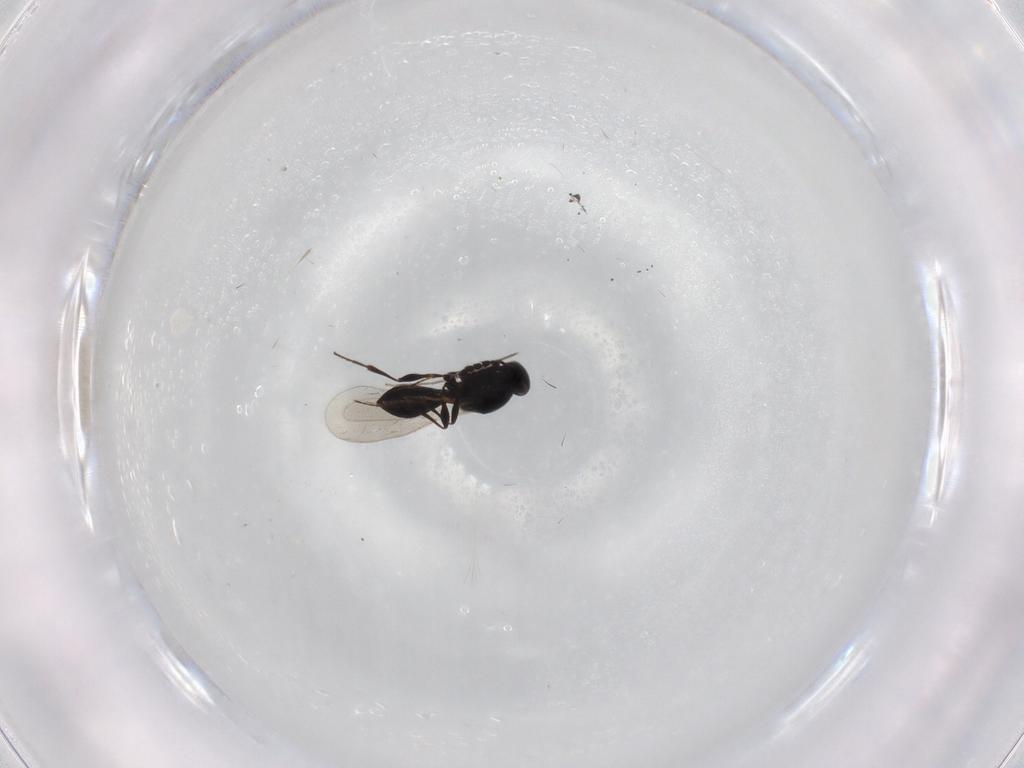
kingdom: Animalia
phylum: Arthropoda
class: Insecta
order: Hymenoptera
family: Platygastridae
